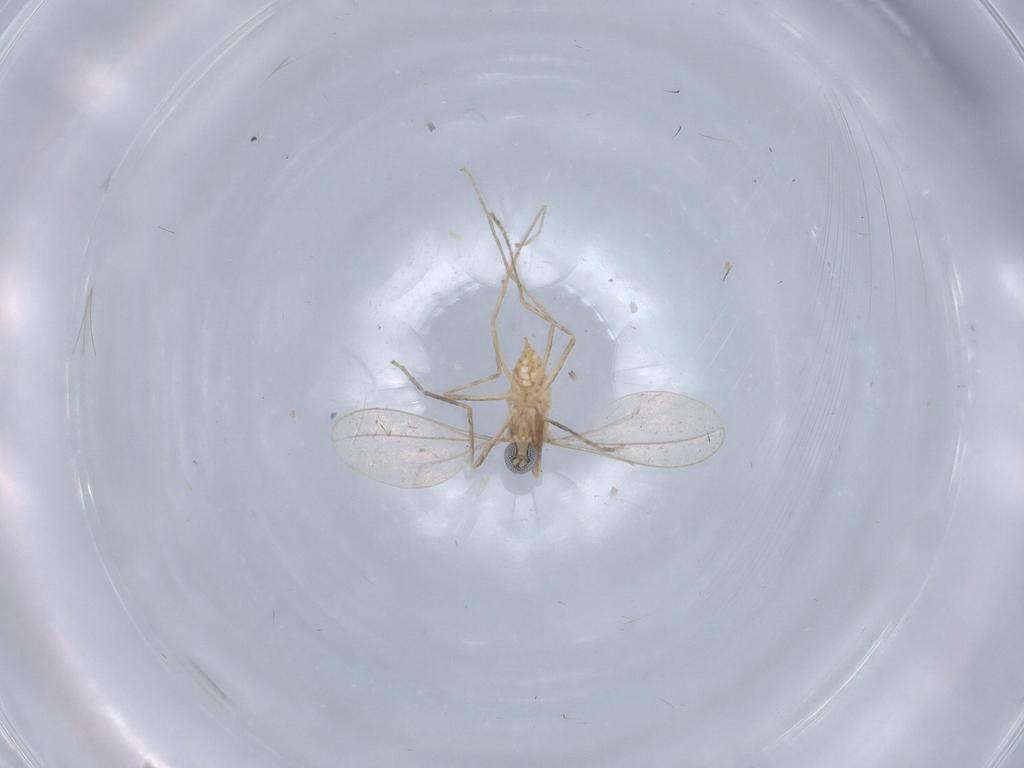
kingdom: Animalia
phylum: Arthropoda
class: Insecta
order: Diptera
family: Cecidomyiidae
